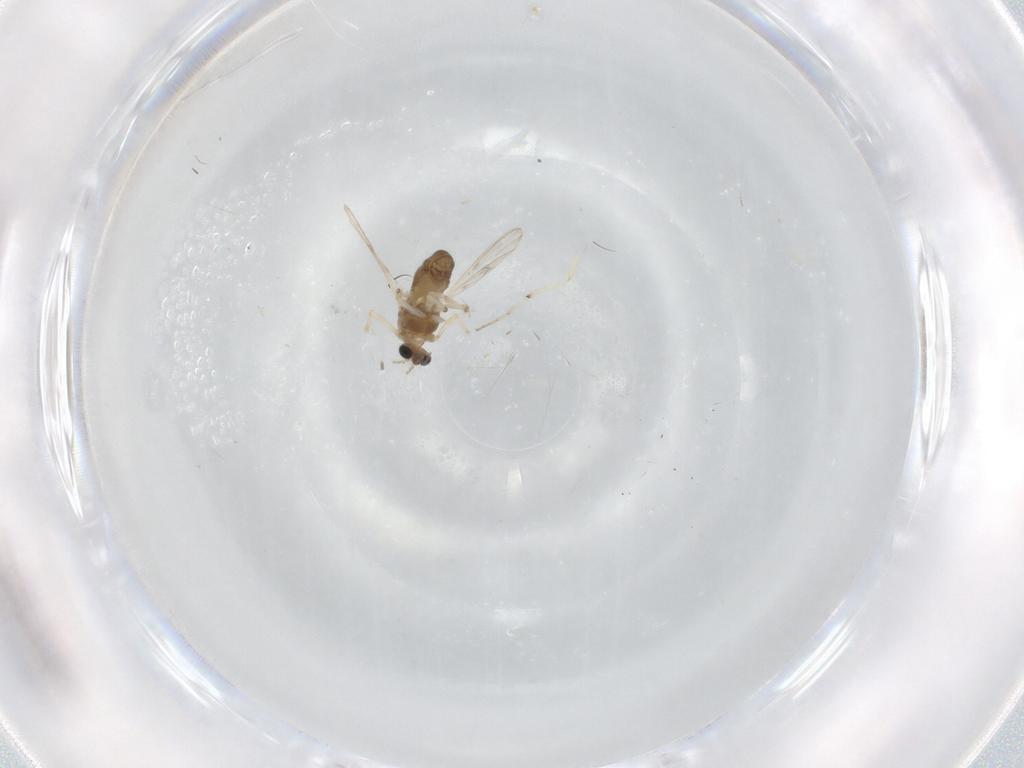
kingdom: Animalia
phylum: Arthropoda
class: Insecta
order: Diptera
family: Chironomidae
